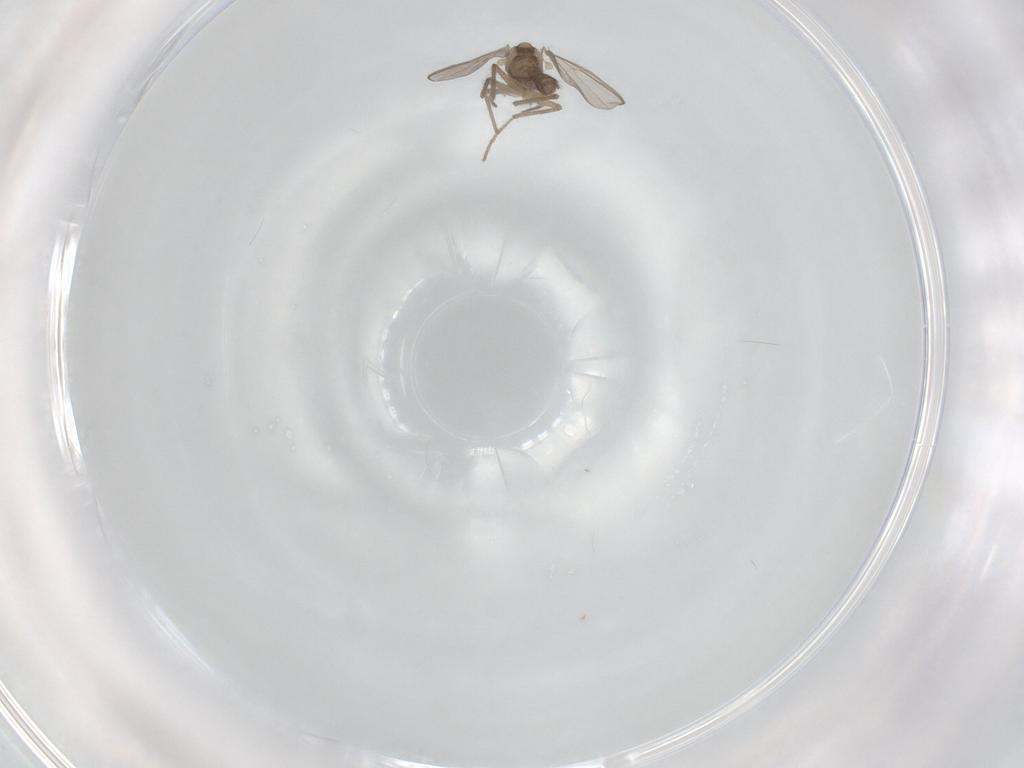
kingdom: Animalia
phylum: Arthropoda
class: Insecta
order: Diptera
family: Chironomidae
